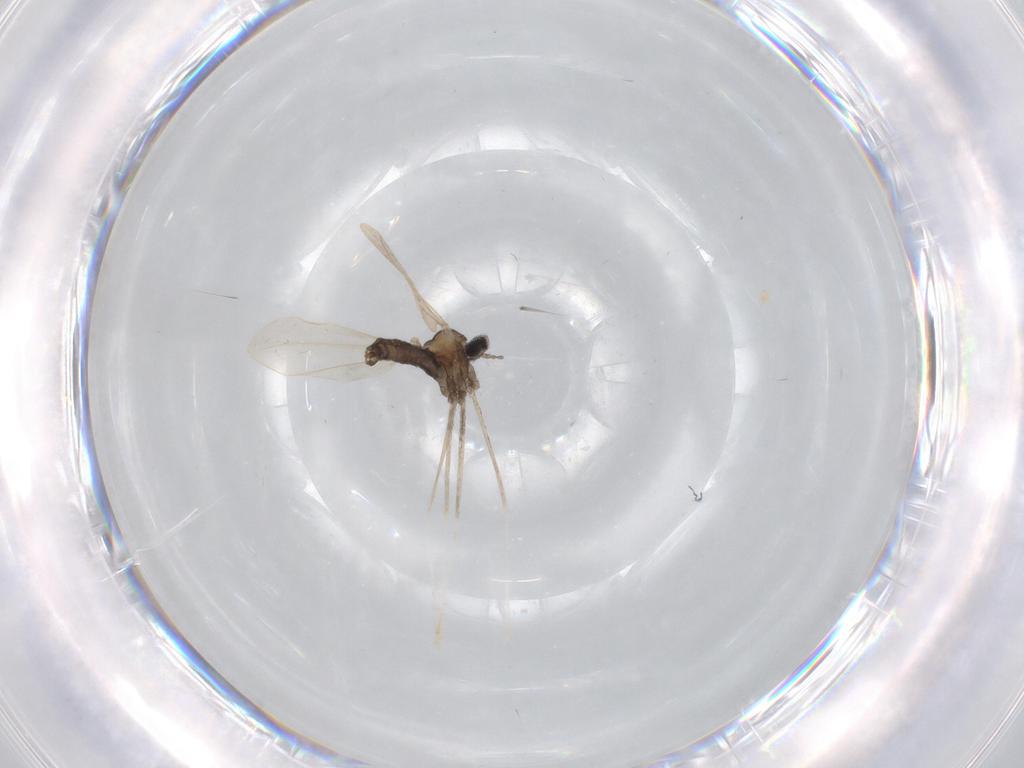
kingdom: Animalia
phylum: Arthropoda
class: Insecta
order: Diptera
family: Cecidomyiidae
